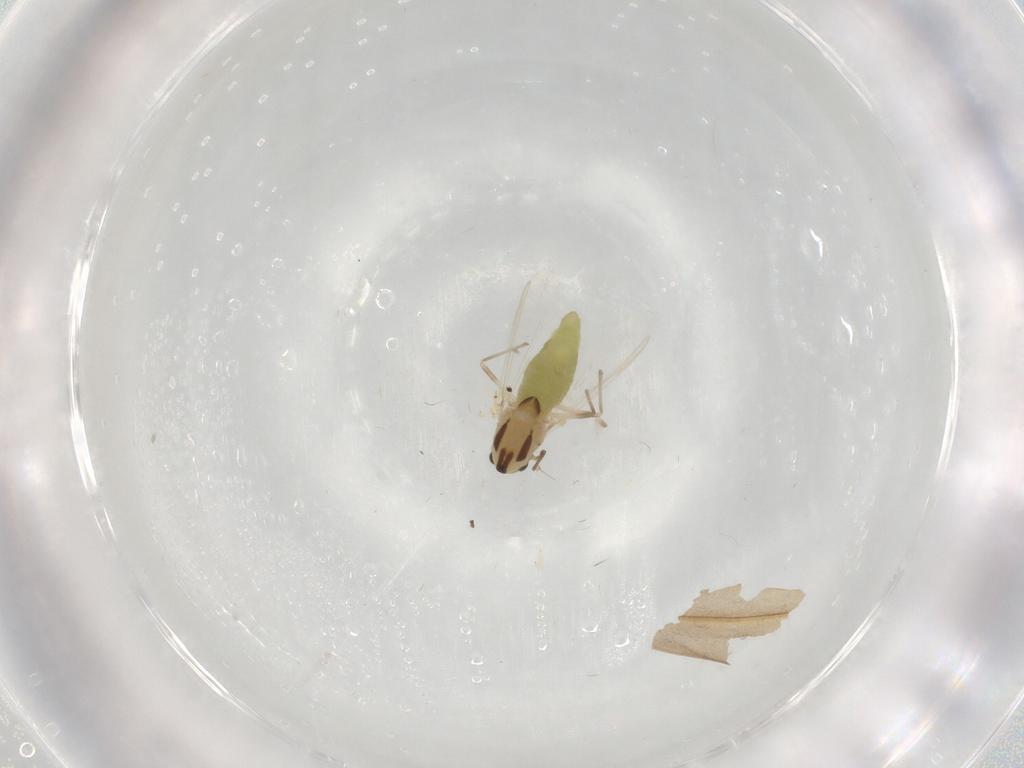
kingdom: Animalia
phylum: Arthropoda
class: Insecta
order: Diptera
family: Chironomidae
